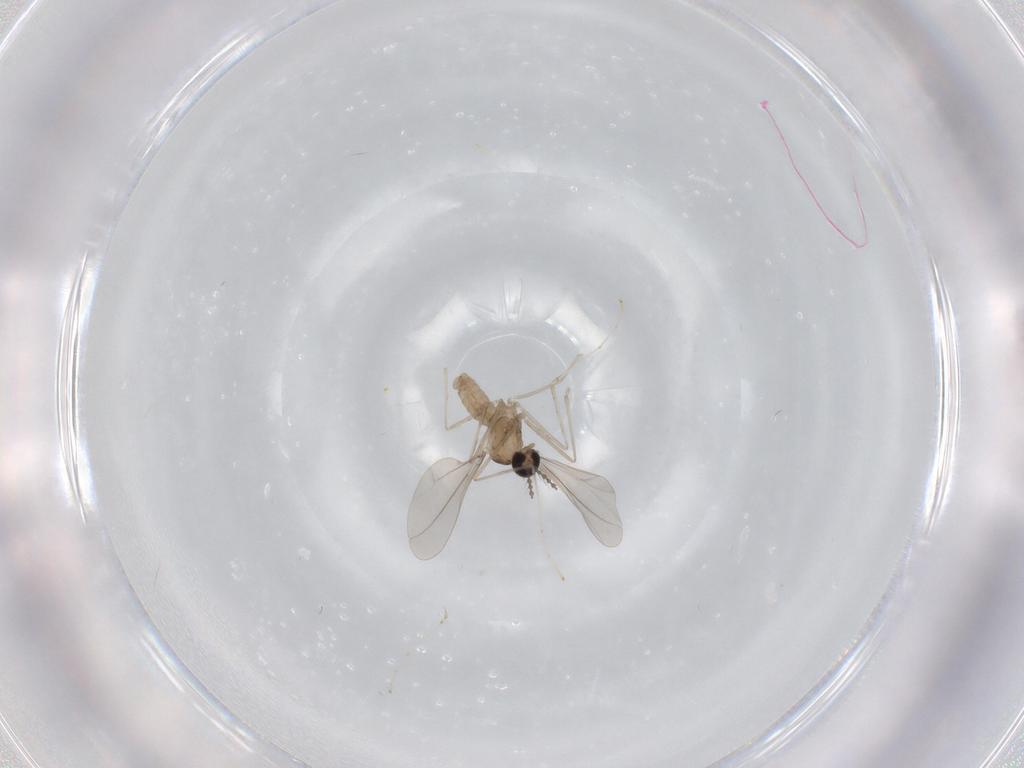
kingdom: Animalia
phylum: Arthropoda
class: Insecta
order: Diptera
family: Cecidomyiidae
